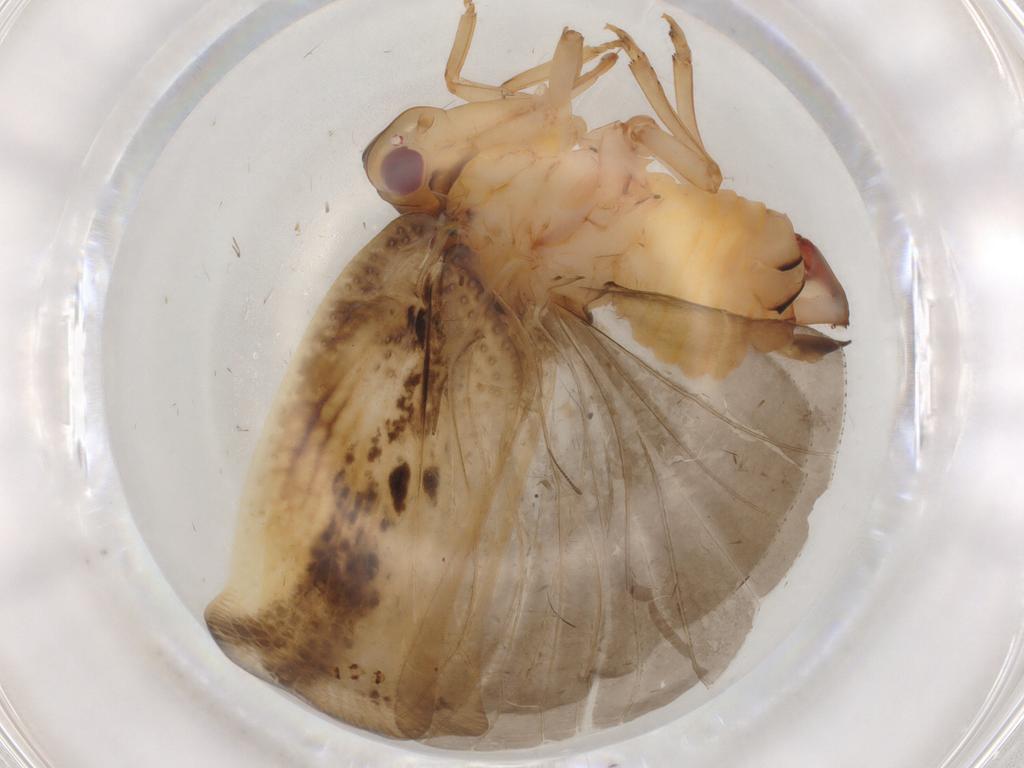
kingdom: Animalia
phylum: Arthropoda
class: Insecta
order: Hemiptera
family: Flatidae
